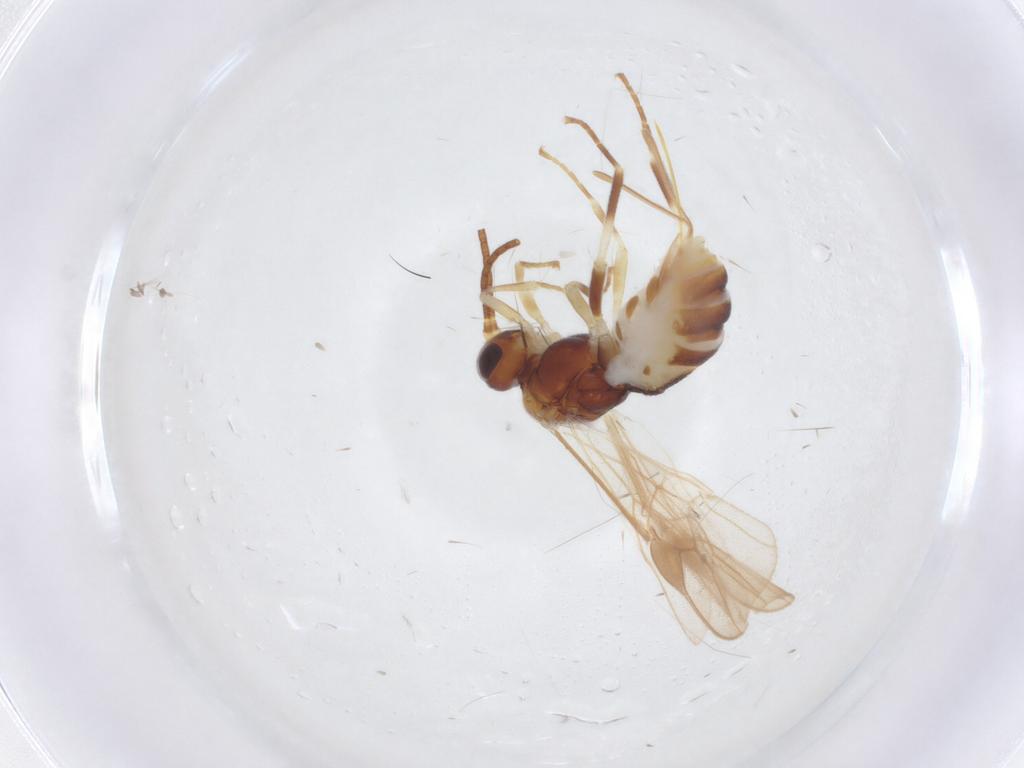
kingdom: Animalia
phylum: Arthropoda
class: Insecta
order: Hymenoptera
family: Braconidae
